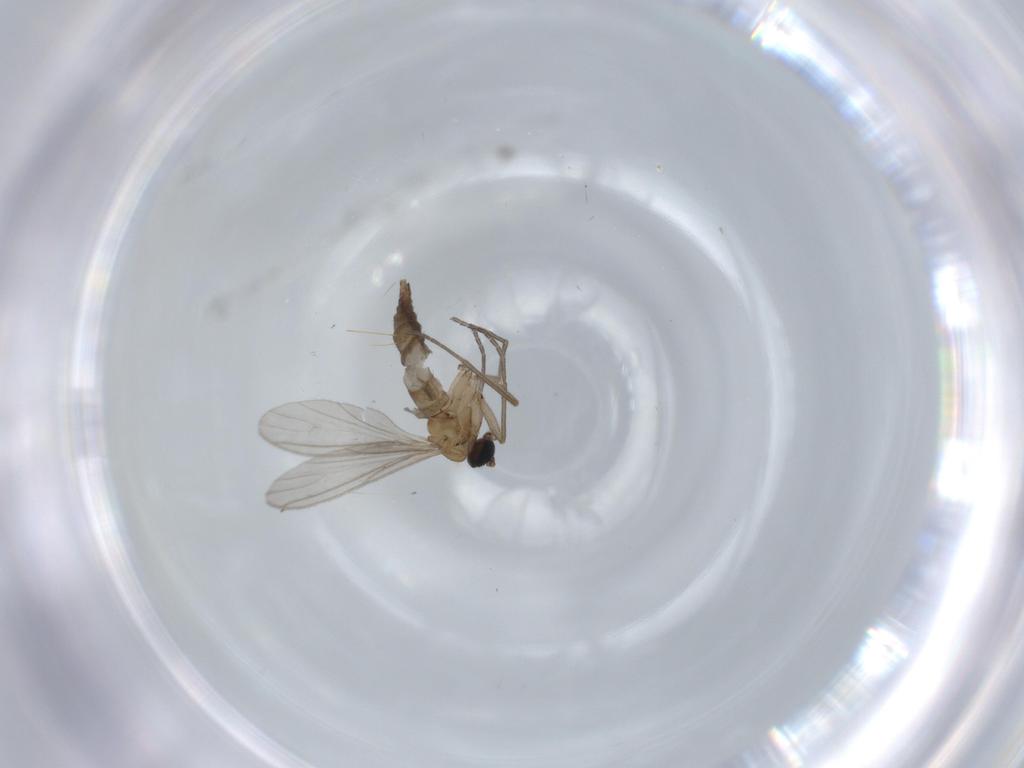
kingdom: Animalia
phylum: Arthropoda
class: Insecta
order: Diptera
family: Sciaridae
